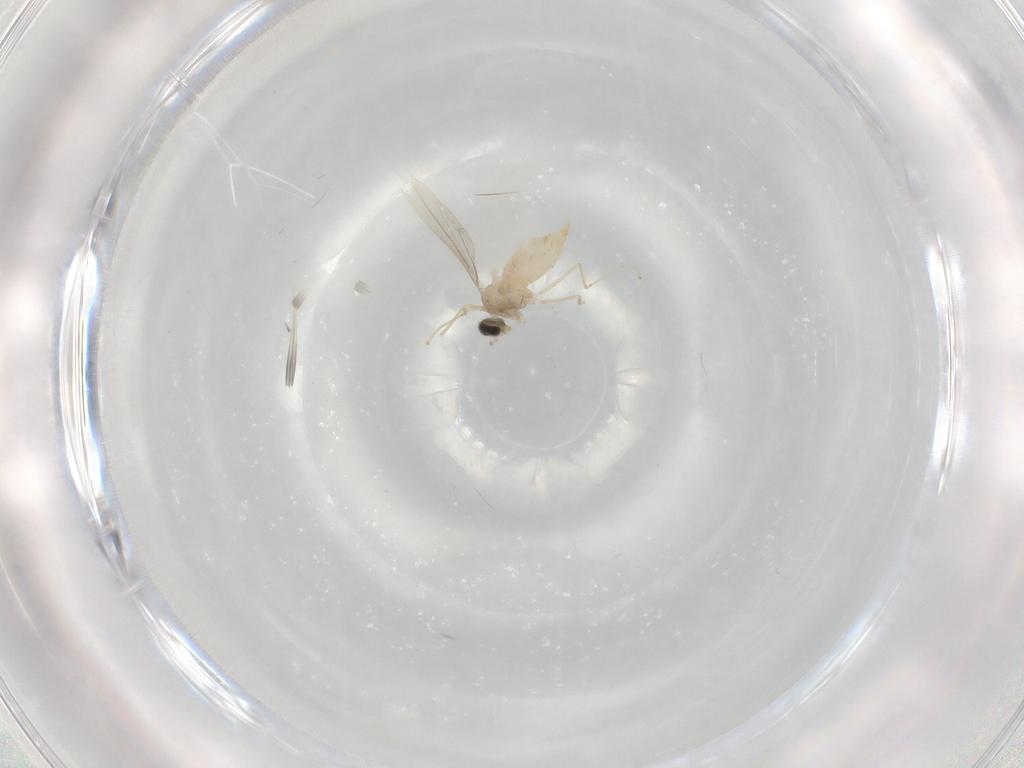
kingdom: Animalia
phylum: Arthropoda
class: Insecta
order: Diptera
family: Cecidomyiidae
